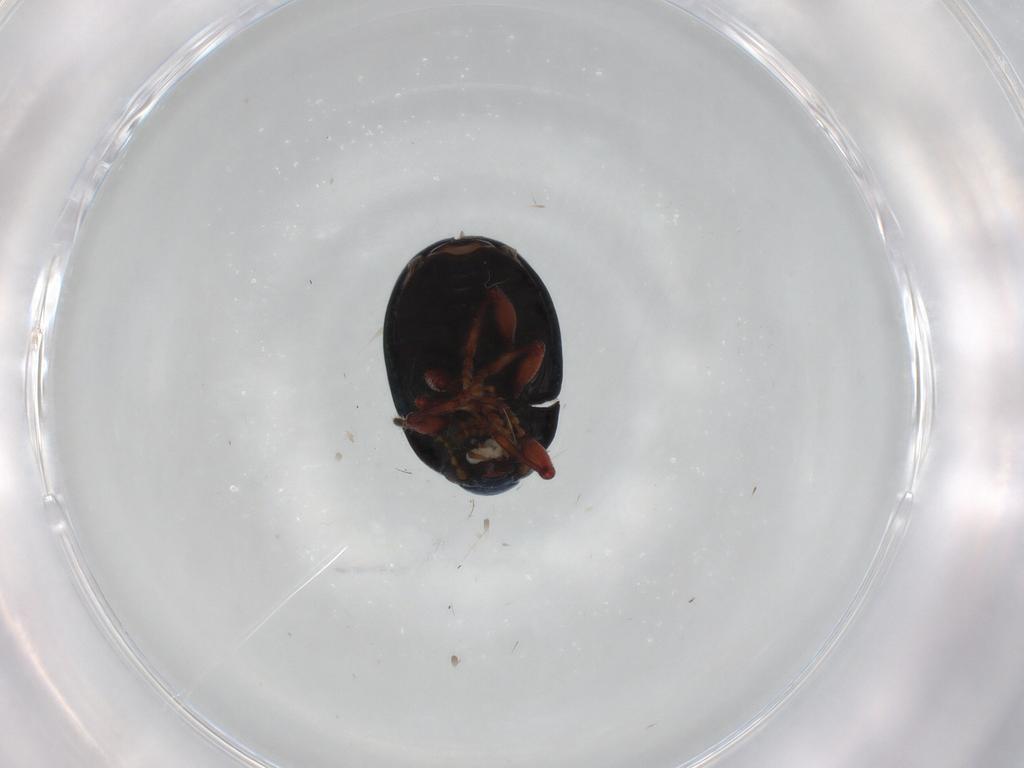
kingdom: Animalia
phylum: Arthropoda
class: Insecta
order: Coleoptera
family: Chrysomelidae
